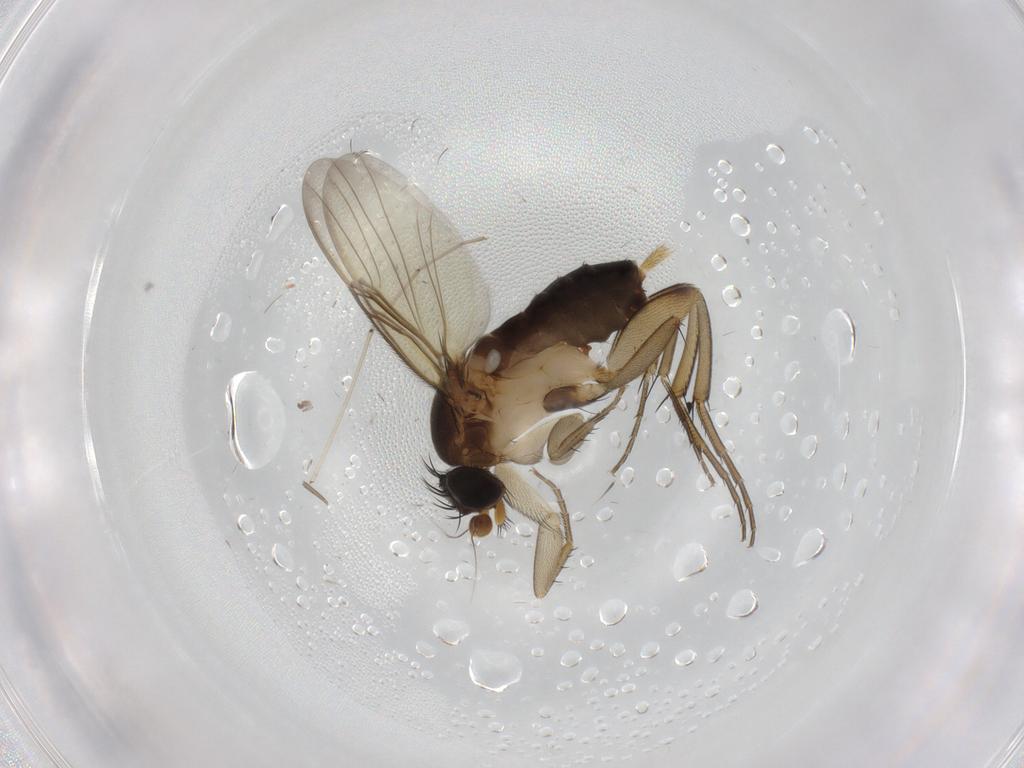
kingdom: Animalia
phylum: Arthropoda
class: Insecta
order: Diptera
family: Phoridae
